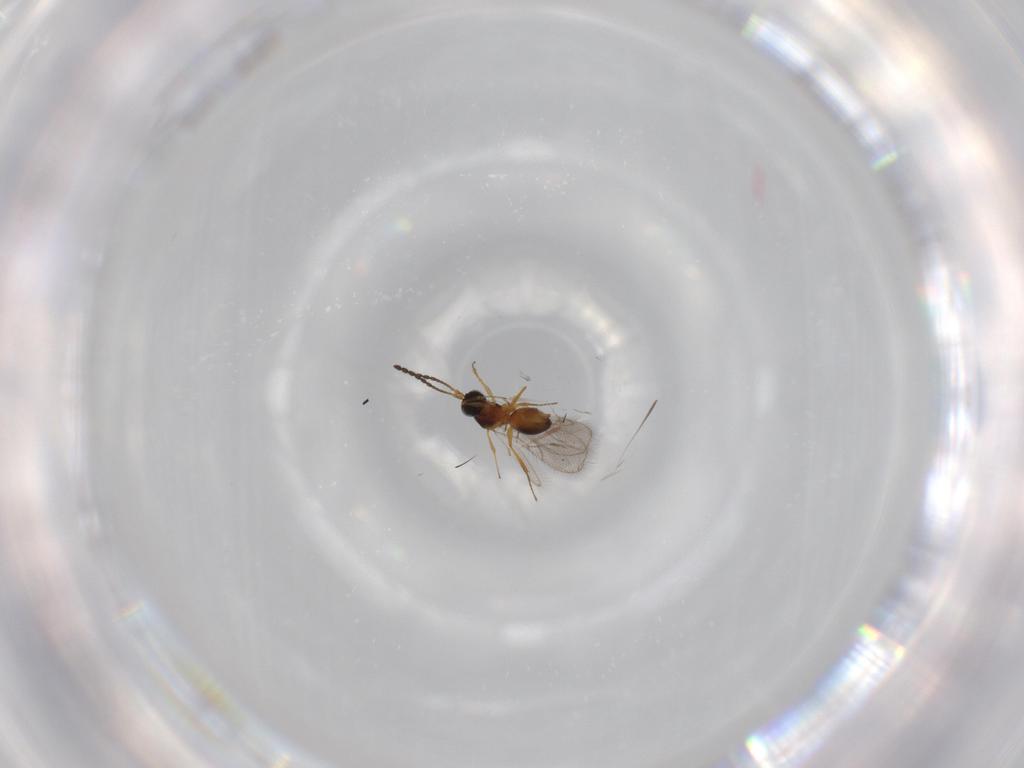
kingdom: Animalia
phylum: Arthropoda
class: Insecta
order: Hymenoptera
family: Figitidae
